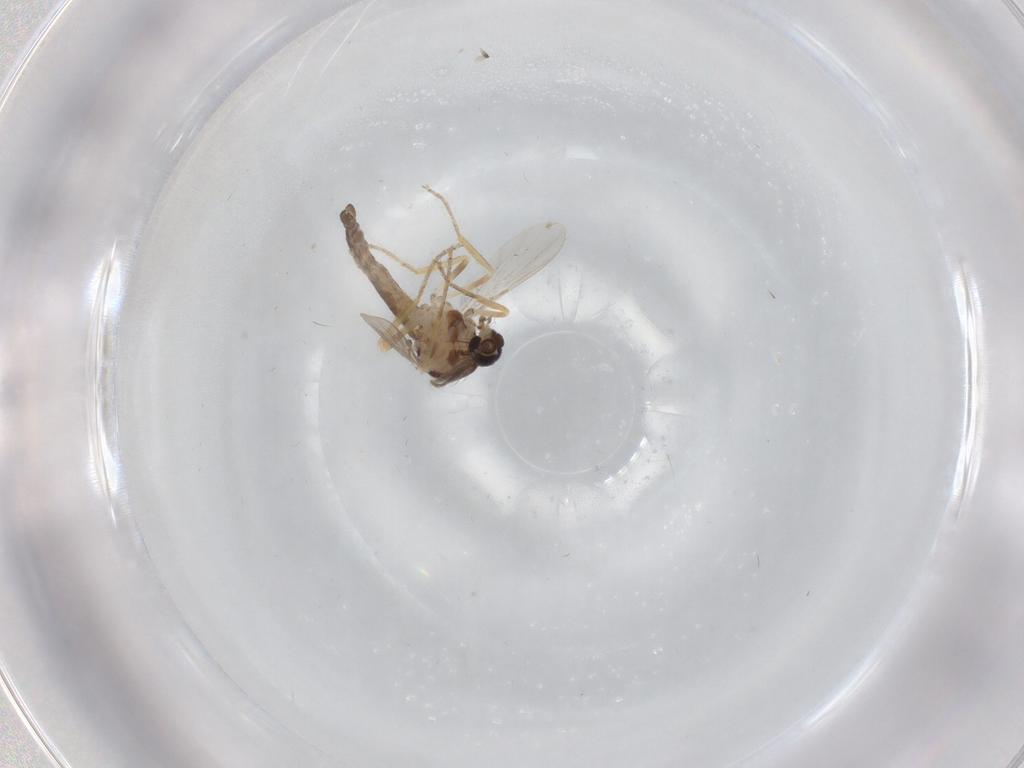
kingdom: Animalia
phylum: Arthropoda
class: Insecta
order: Diptera
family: Ceratopogonidae
